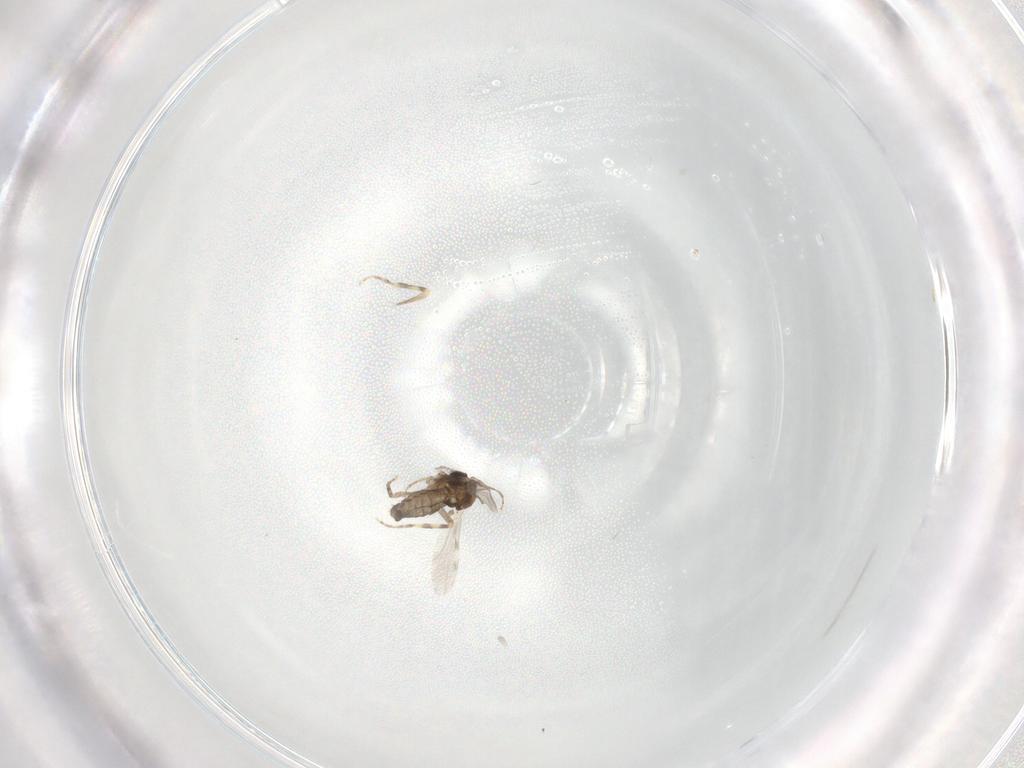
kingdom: Animalia
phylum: Arthropoda
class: Insecta
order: Diptera
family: Ceratopogonidae
